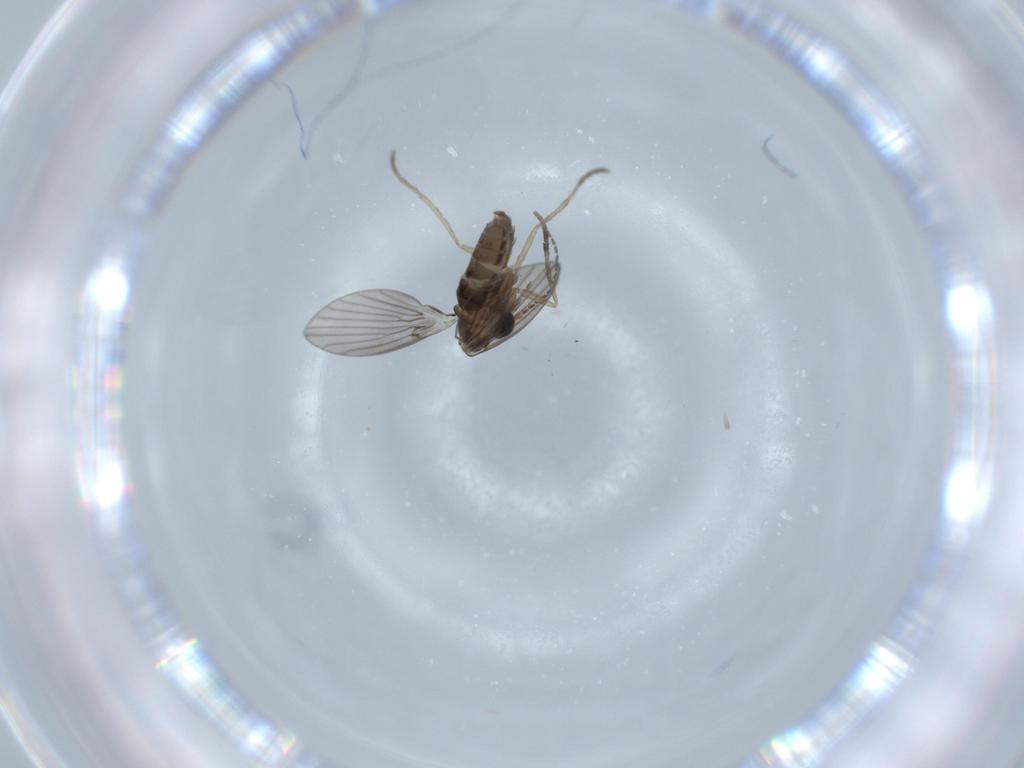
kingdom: Animalia
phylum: Arthropoda
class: Insecta
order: Diptera
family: Psychodidae
